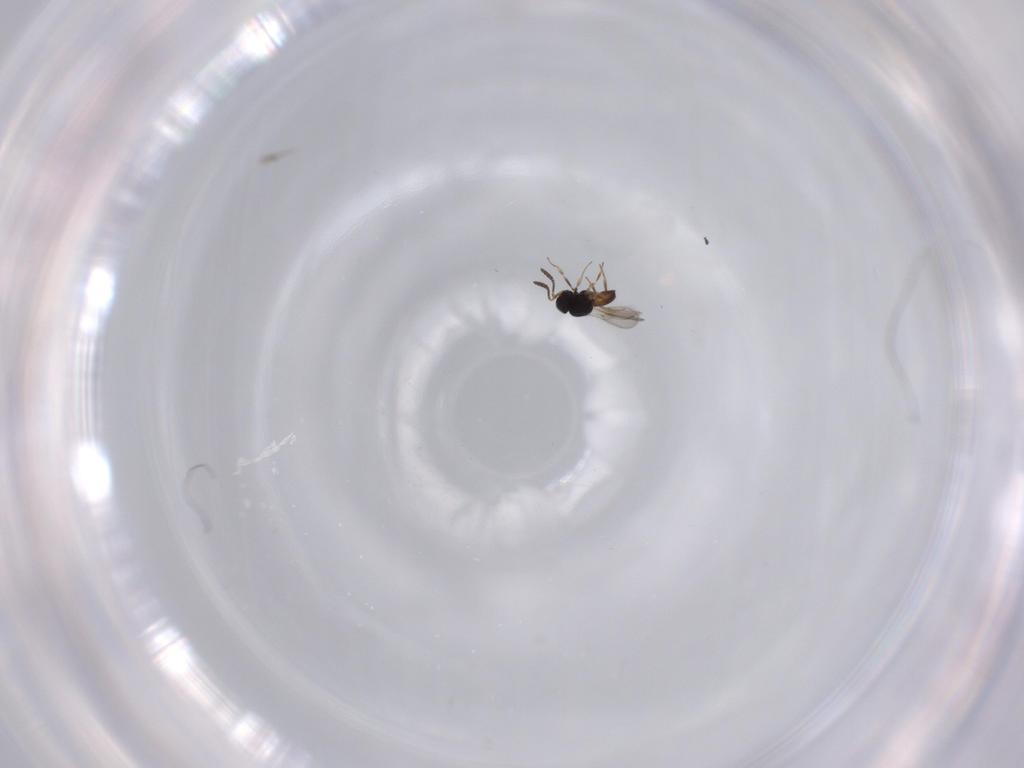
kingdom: Animalia
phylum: Arthropoda
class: Insecta
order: Hymenoptera
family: Scelionidae
